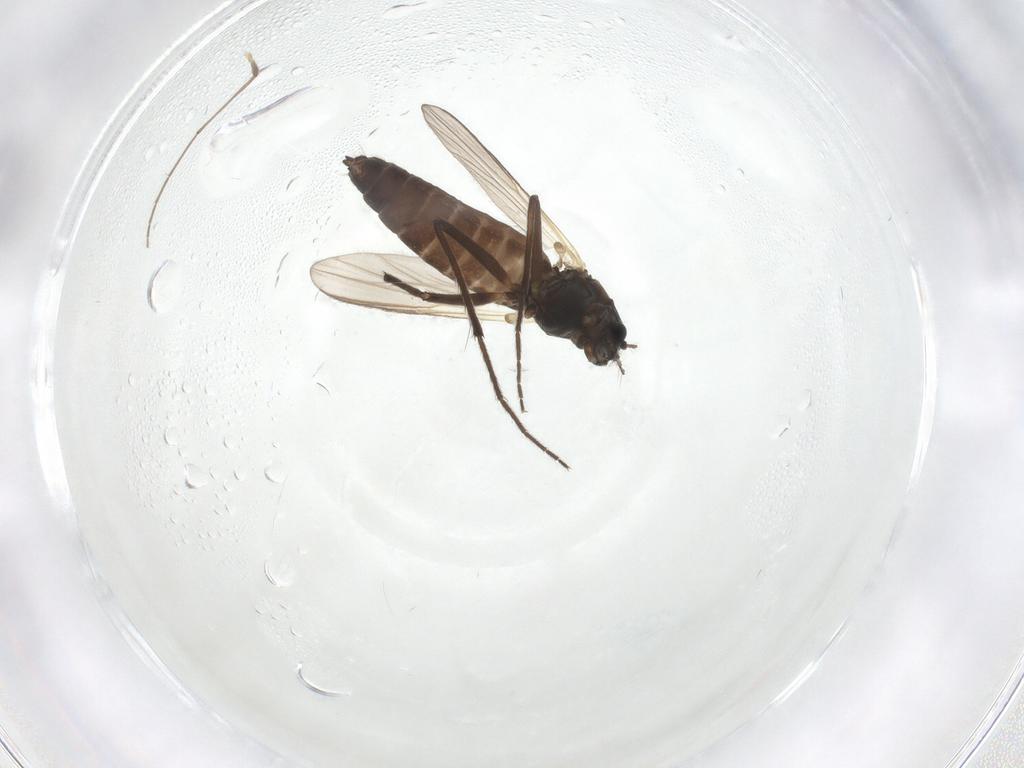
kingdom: Animalia
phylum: Arthropoda
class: Insecta
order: Diptera
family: Chironomidae
